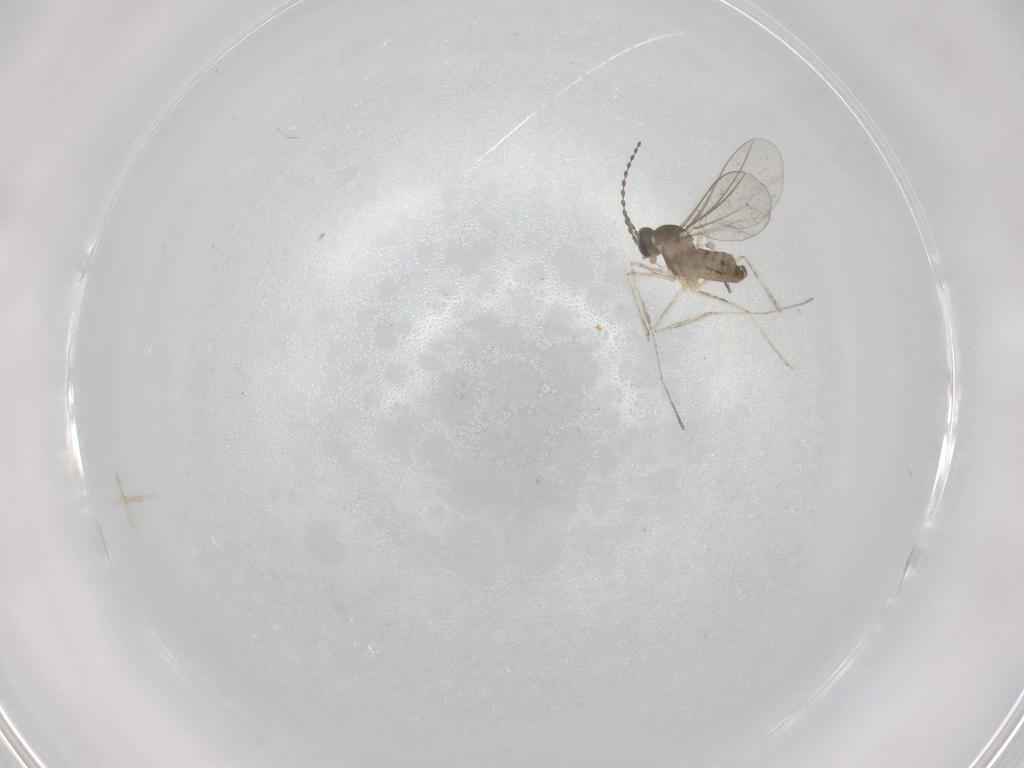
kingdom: Animalia
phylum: Arthropoda
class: Insecta
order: Diptera
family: Cecidomyiidae
